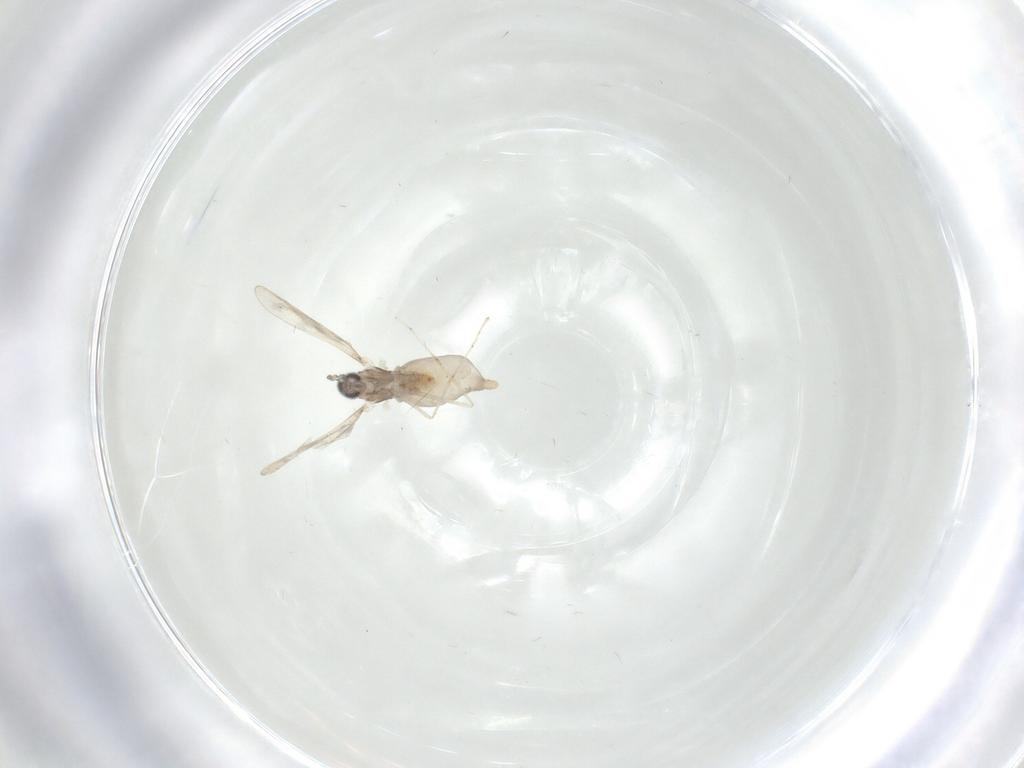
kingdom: Animalia
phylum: Arthropoda
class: Insecta
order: Diptera
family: Cecidomyiidae
